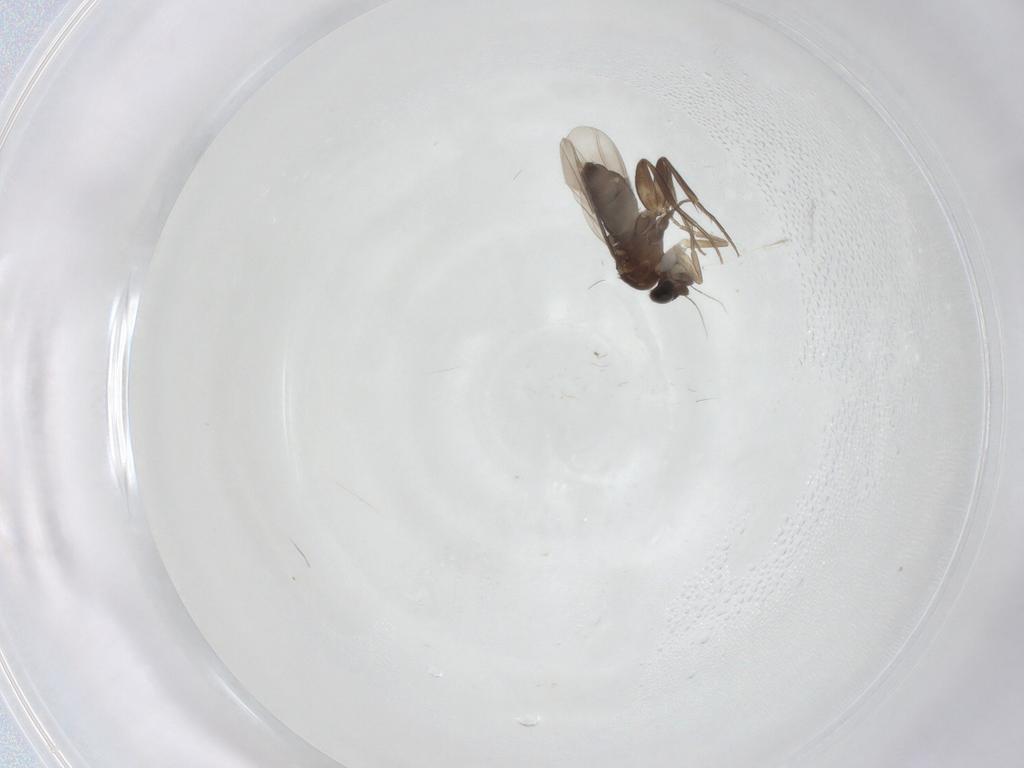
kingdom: Animalia
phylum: Arthropoda
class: Insecta
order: Diptera
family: Phoridae
